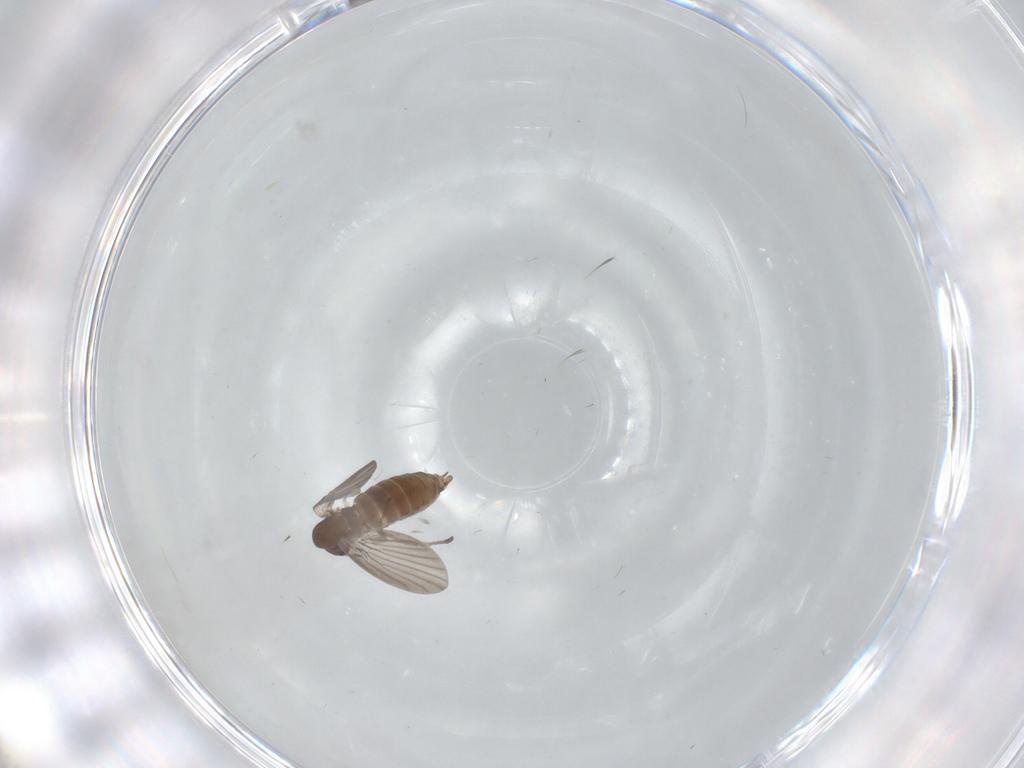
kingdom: Animalia
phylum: Arthropoda
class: Insecta
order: Diptera
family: Dolichopodidae
